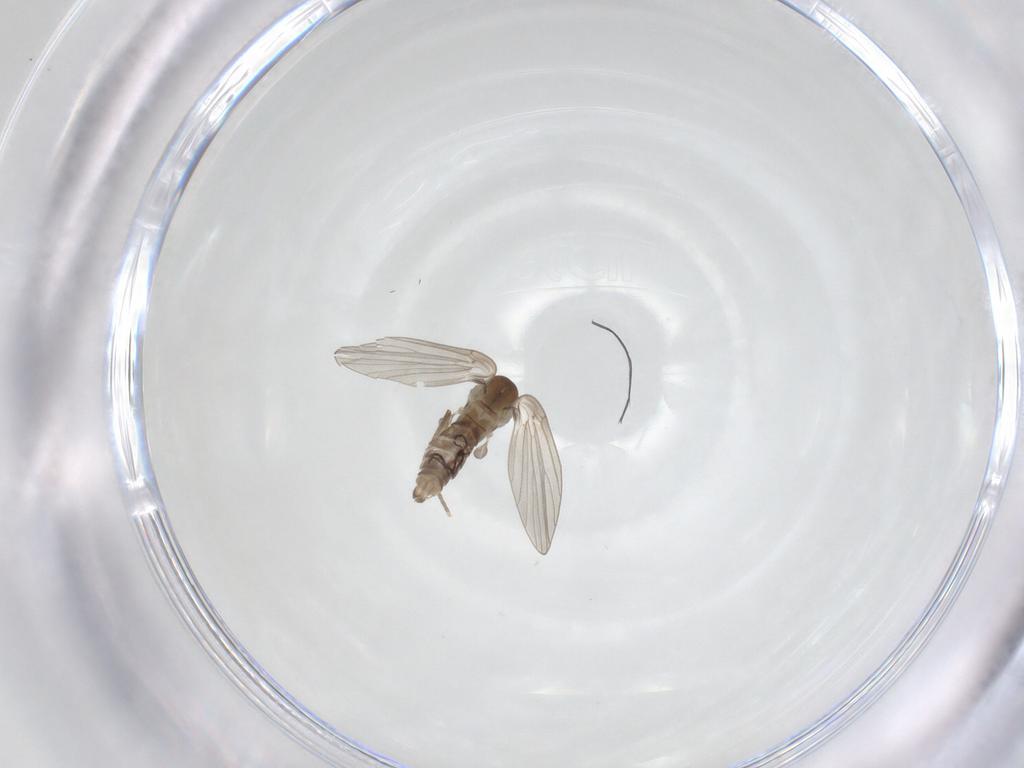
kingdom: Animalia
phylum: Arthropoda
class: Insecta
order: Diptera
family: Psychodidae
